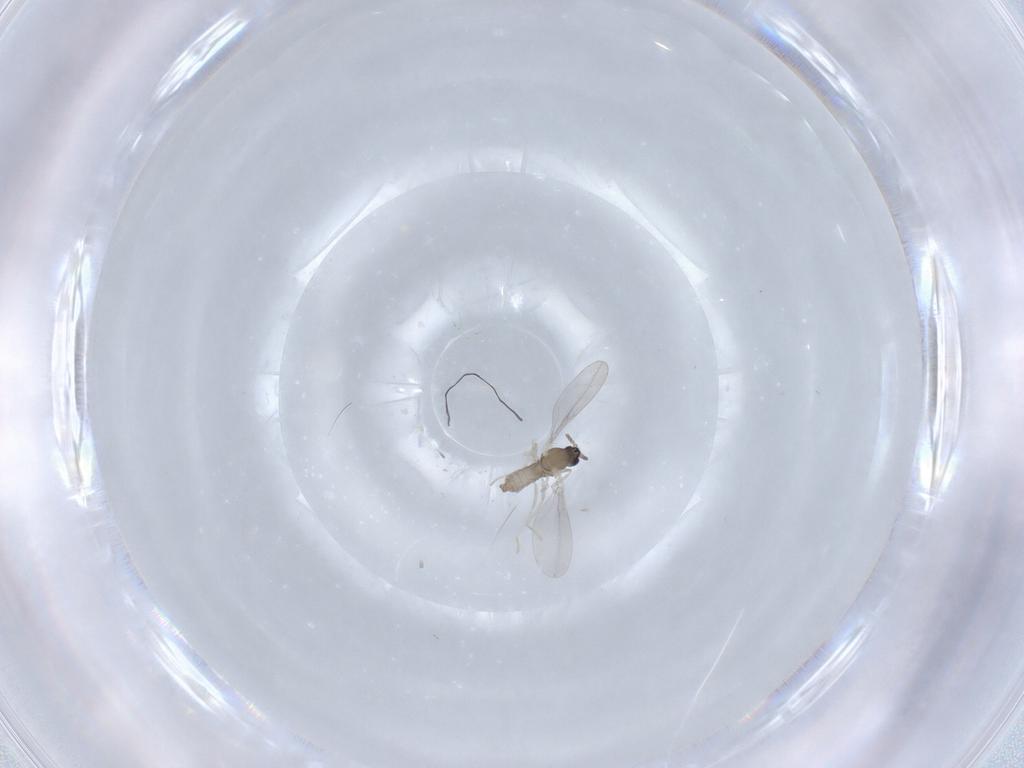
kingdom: Animalia
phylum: Arthropoda
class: Insecta
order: Diptera
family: Cecidomyiidae
